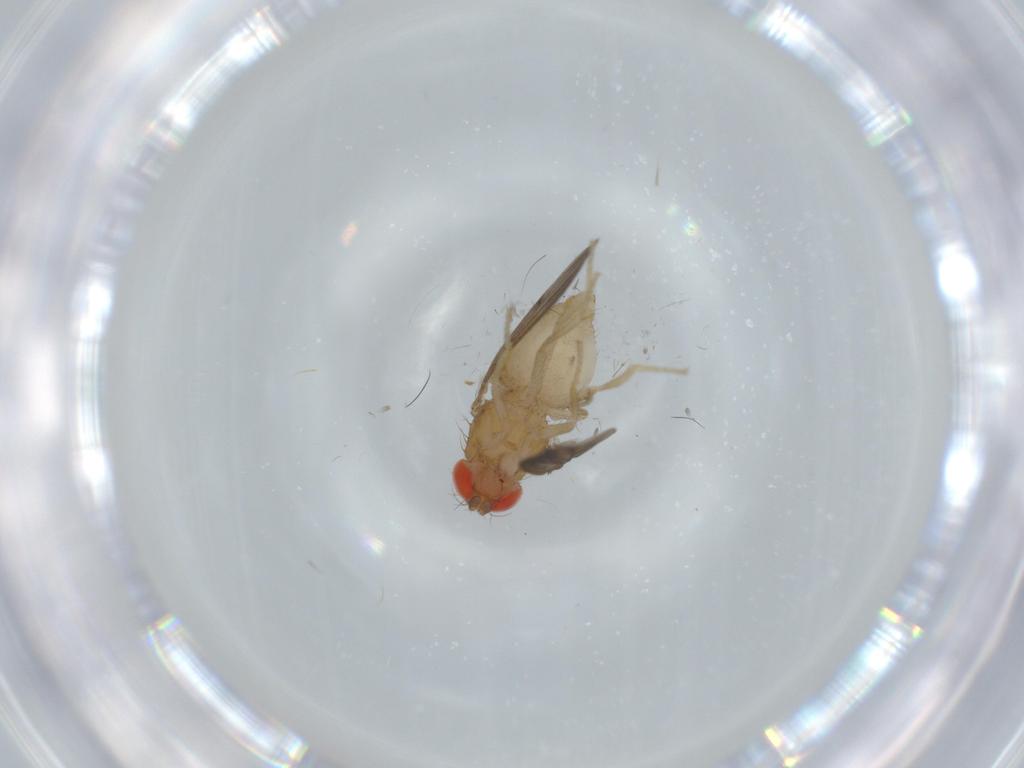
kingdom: Animalia
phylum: Arthropoda
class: Insecta
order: Diptera
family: Drosophilidae
